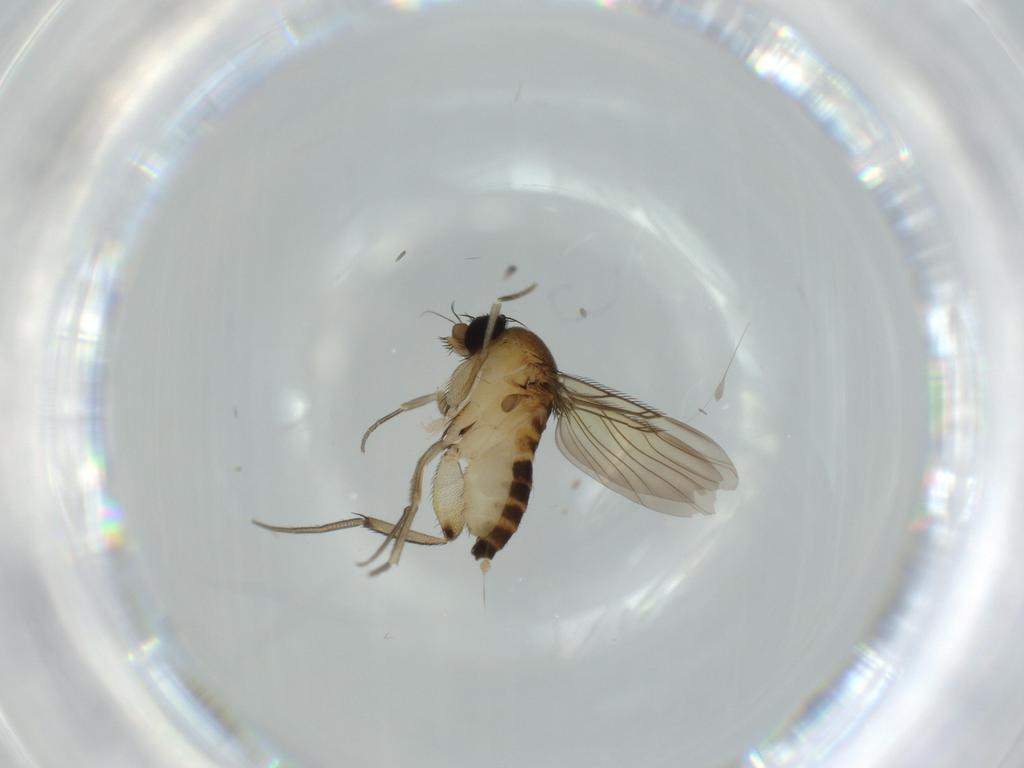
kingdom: Animalia
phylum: Arthropoda
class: Insecta
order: Diptera
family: Phoridae
